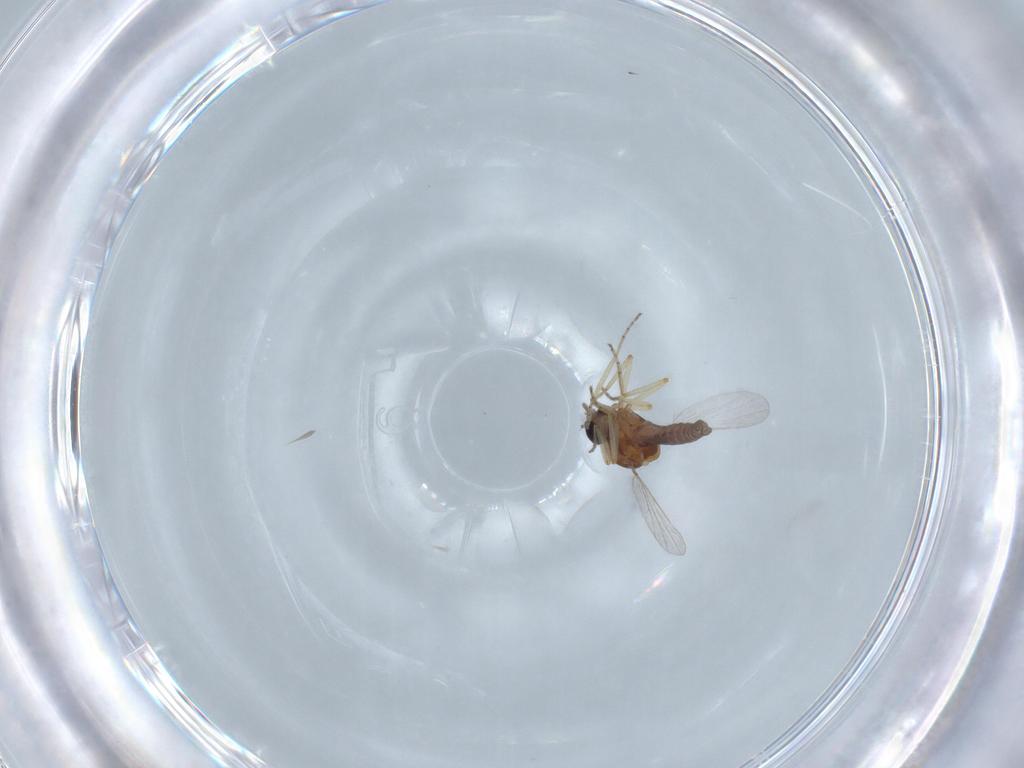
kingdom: Animalia
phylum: Arthropoda
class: Insecta
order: Diptera
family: Ceratopogonidae
